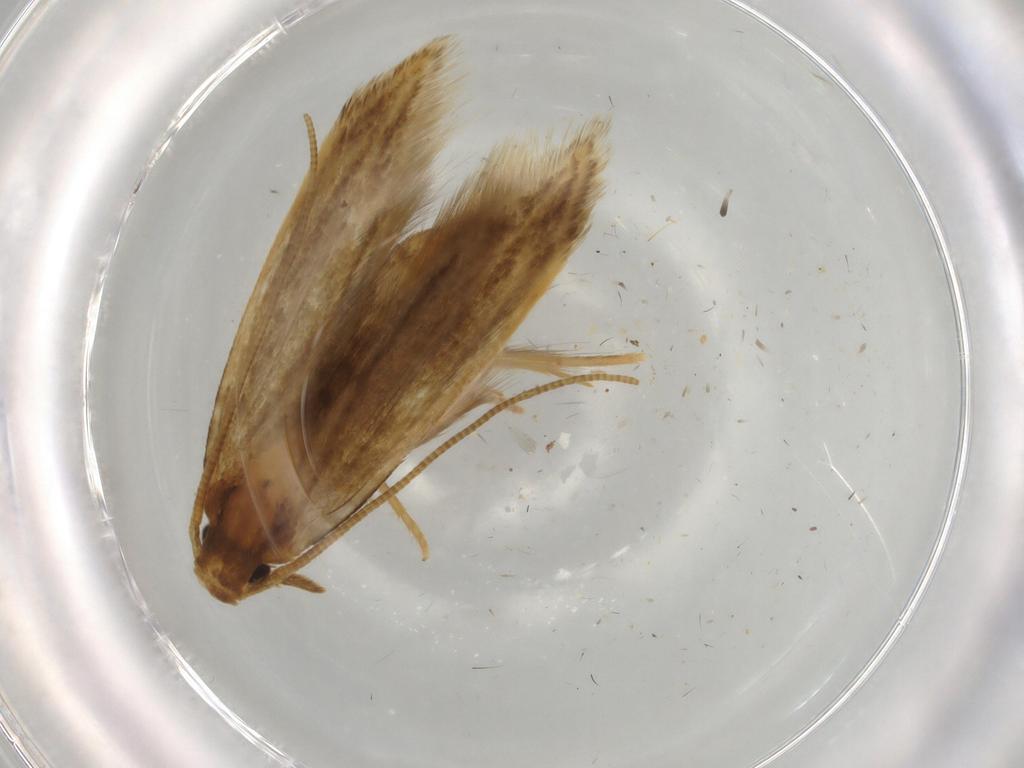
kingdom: Animalia
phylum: Arthropoda
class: Insecta
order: Lepidoptera
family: Tineidae
